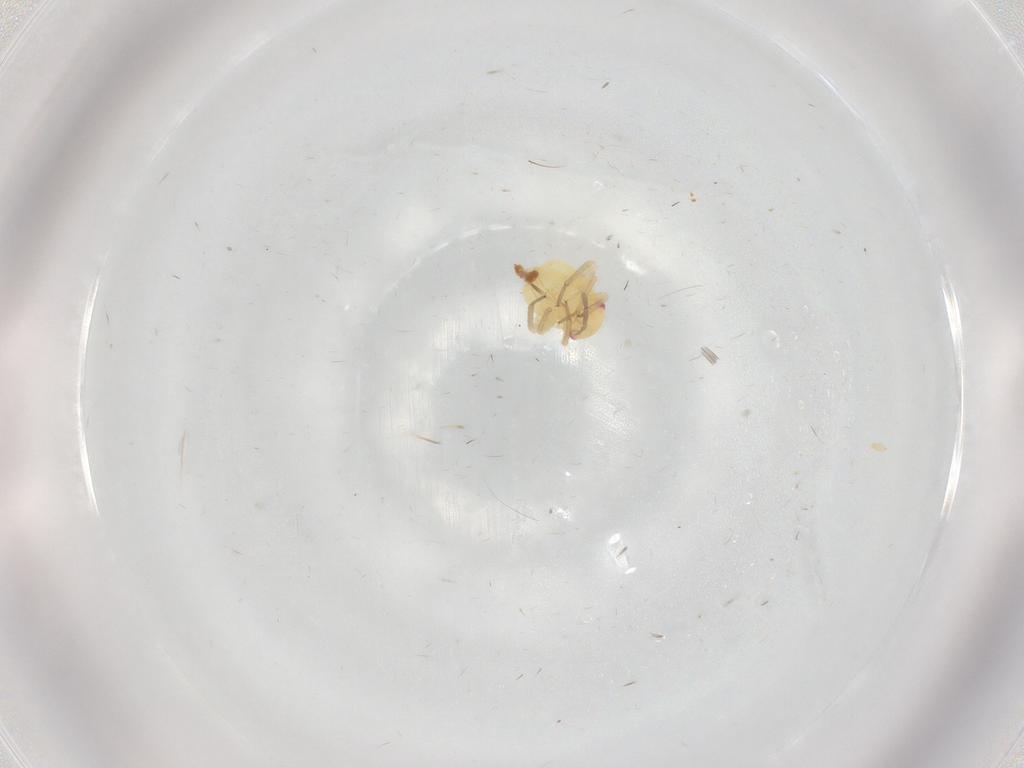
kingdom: Animalia
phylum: Arthropoda
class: Insecta
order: Hemiptera
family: Miridae
